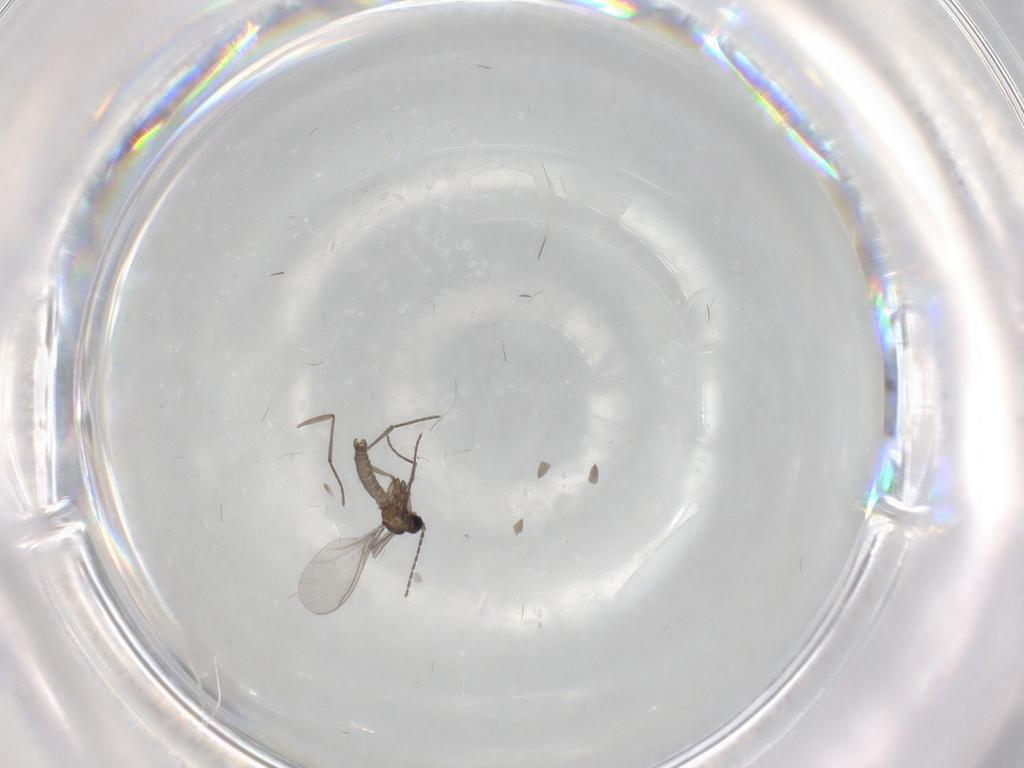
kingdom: Animalia
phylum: Arthropoda
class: Insecta
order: Diptera
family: Sciaridae
